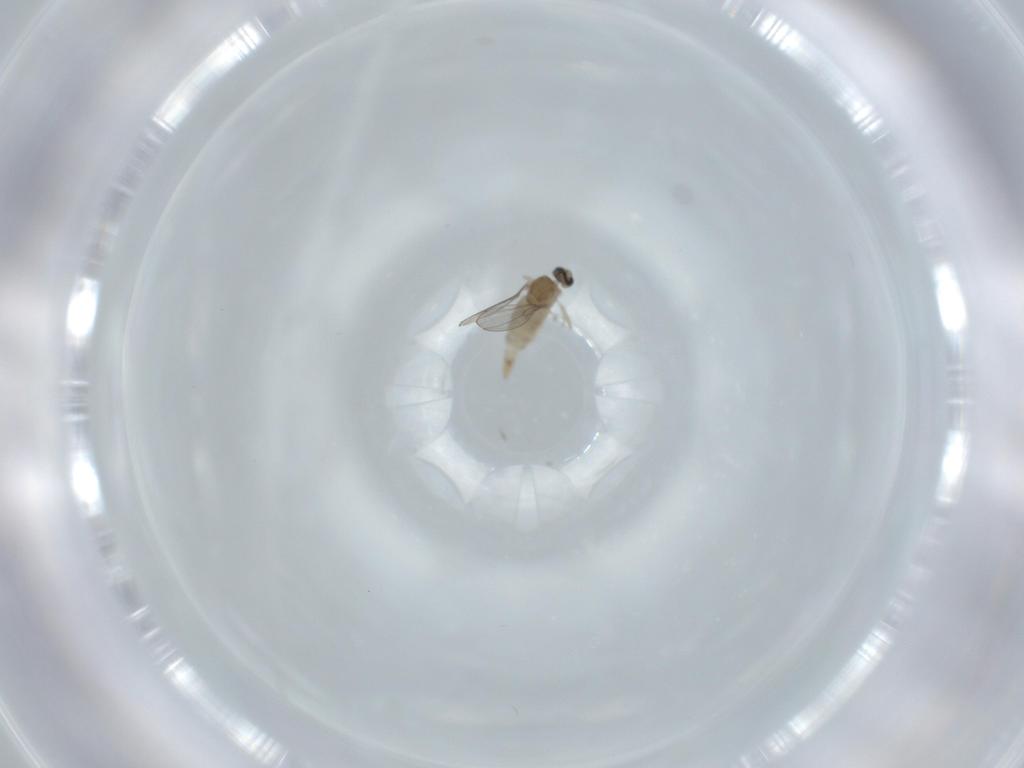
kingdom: Animalia
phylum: Arthropoda
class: Insecta
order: Diptera
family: Cecidomyiidae
